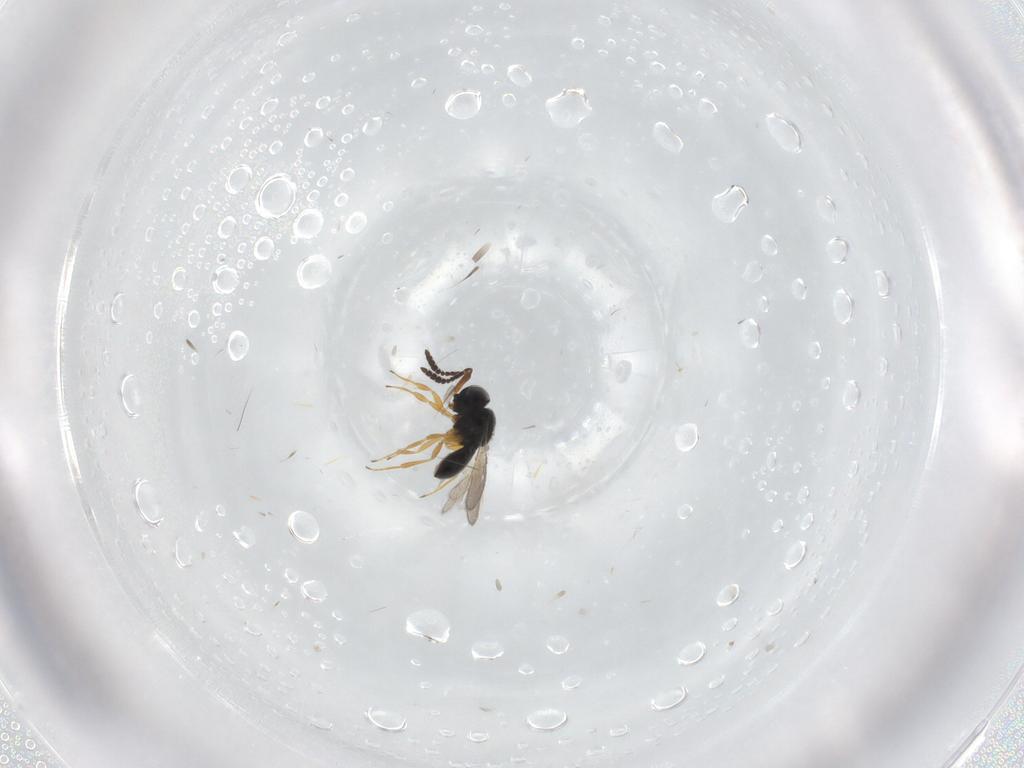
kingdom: Animalia
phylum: Arthropoda
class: Insecta
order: Hymenoptera
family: Scelionidae
